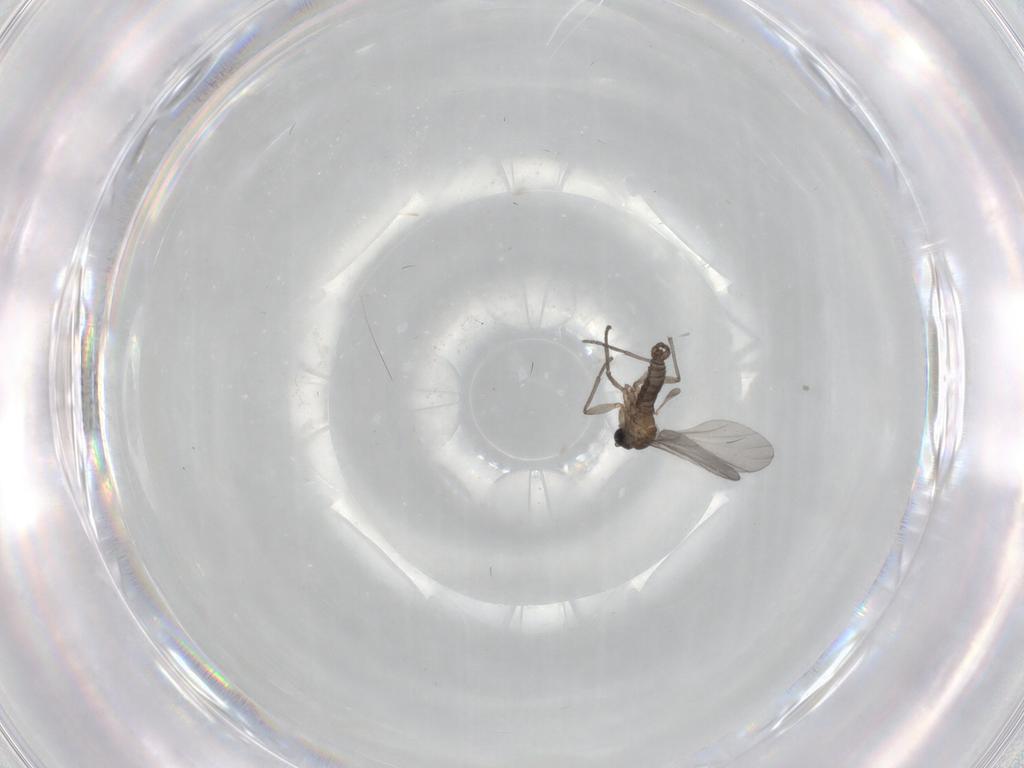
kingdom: Animalia
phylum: Arthropoda
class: Insecta
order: Diptera
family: Sciaridae
